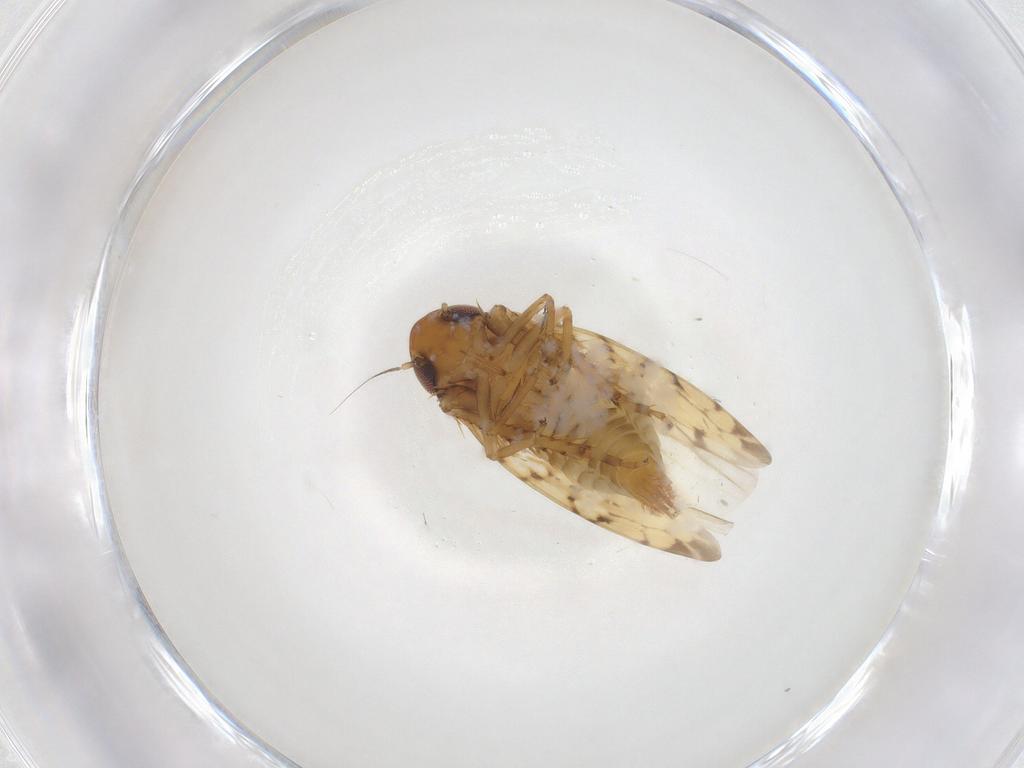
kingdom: Animalia
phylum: Arthropoda
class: Insecta
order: Hemiptera
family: Cicadellidae
